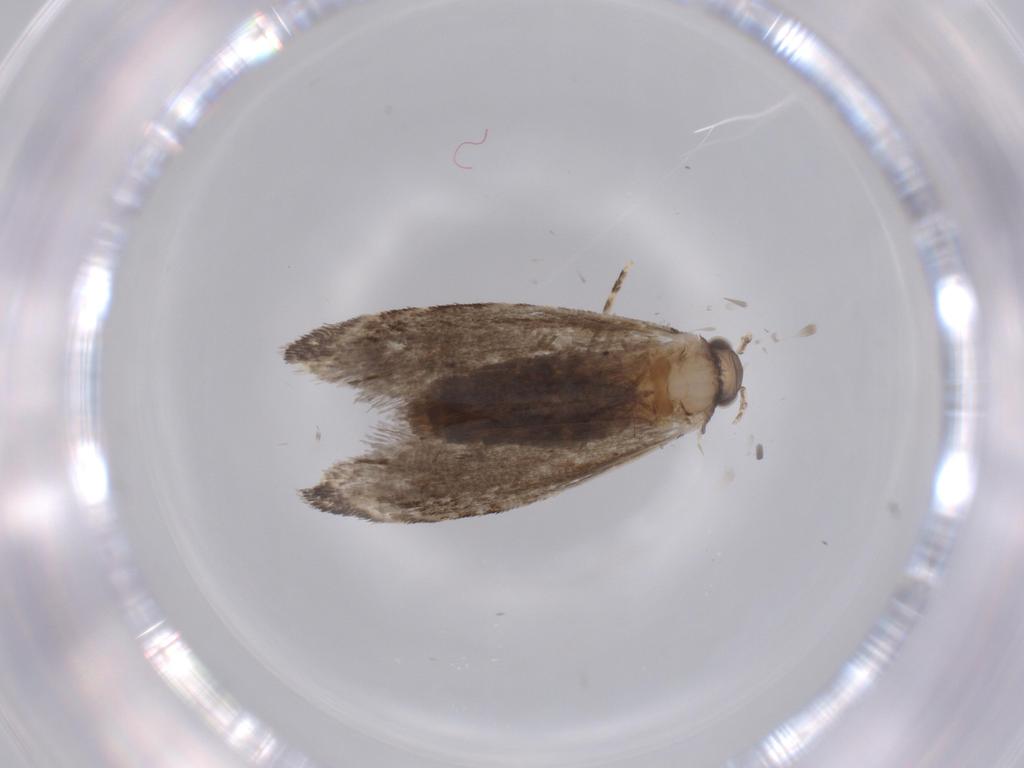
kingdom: Animalia
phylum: Arthropoda
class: Insecta
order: Lepidoptera
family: Tineidae
